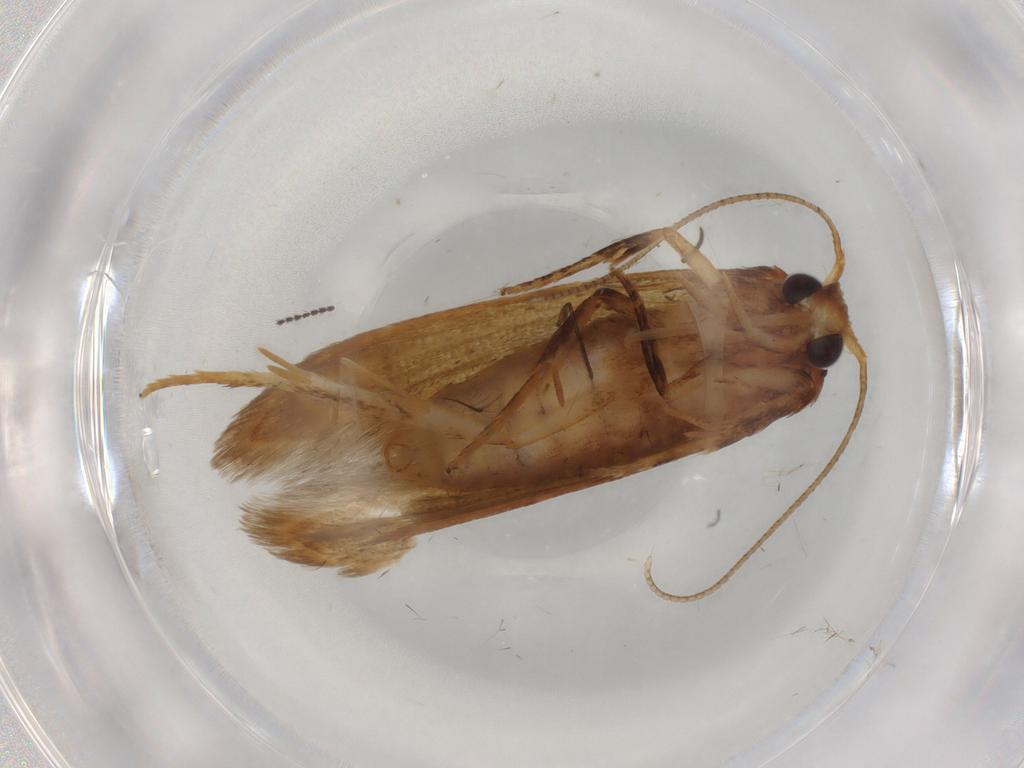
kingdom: Animalia
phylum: Arthropoda
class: Insecta
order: Lepidoptera
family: Blastobasidae
